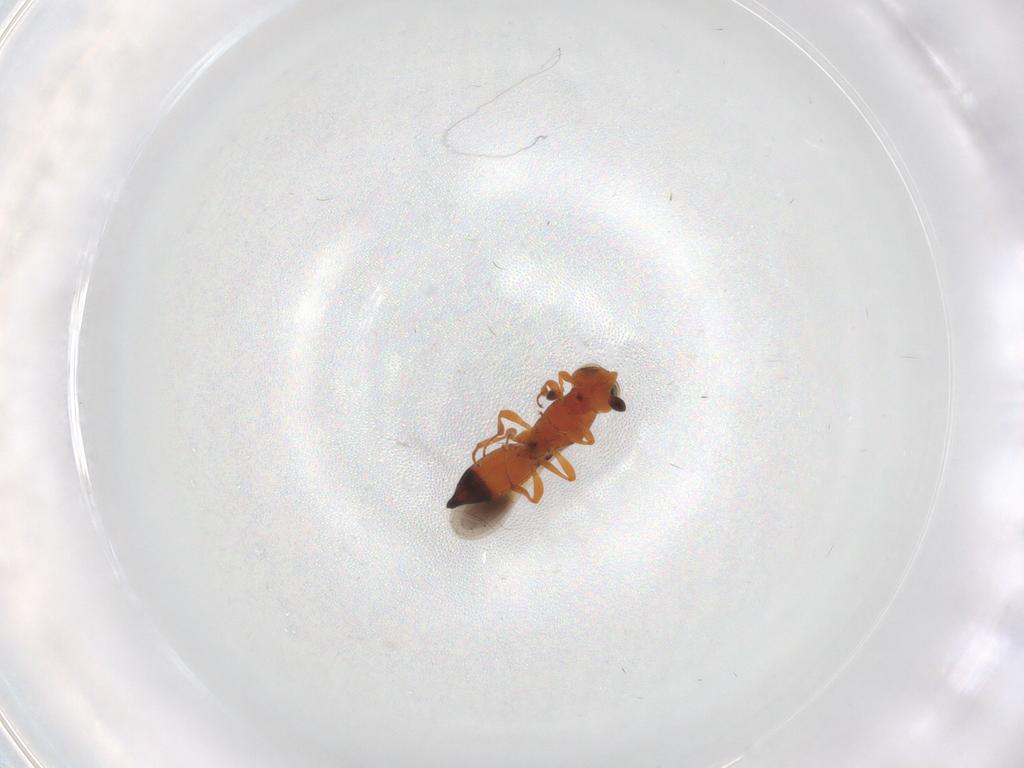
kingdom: Animalia
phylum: Arthropoda
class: Insecta
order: Hymenoptera
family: Platygastridae
